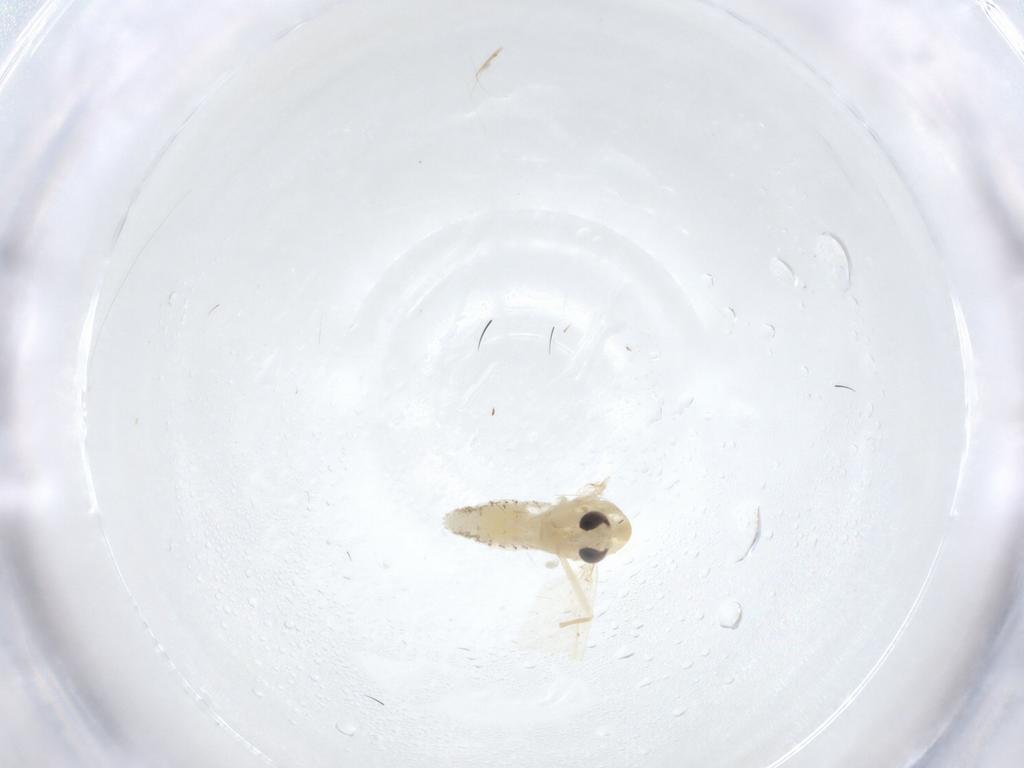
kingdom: Animalia
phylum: Arthropoda
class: Insecta
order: Diptera
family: Chironomidae
